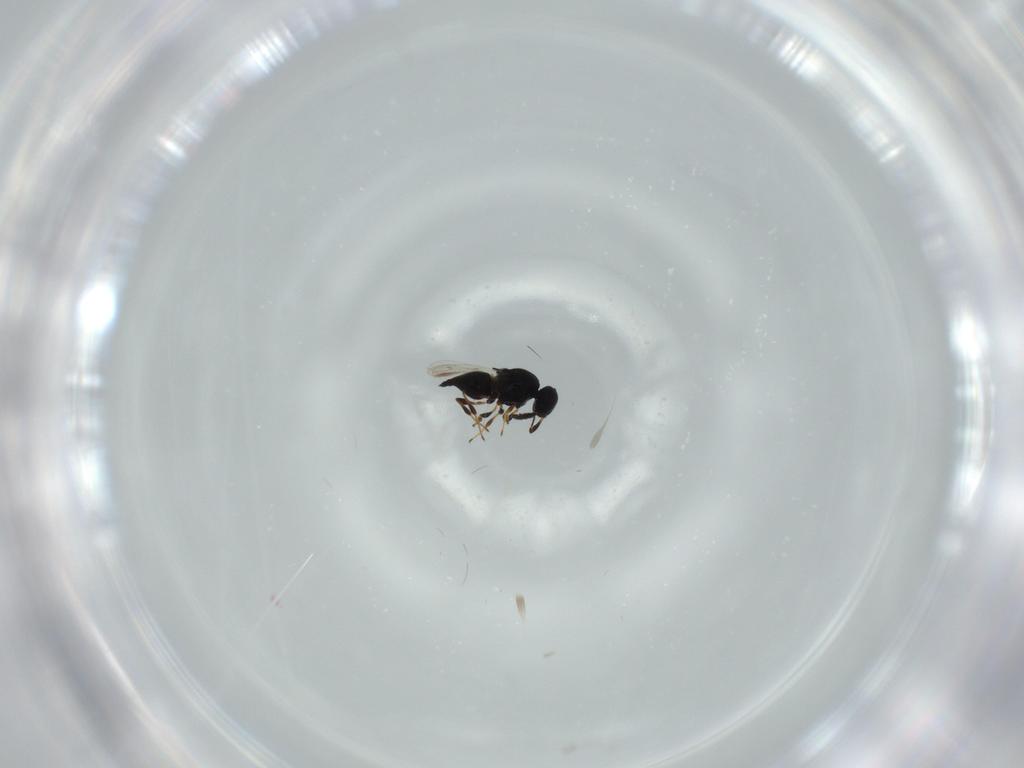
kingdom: Animalia
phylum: Arthropoda
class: Insecta
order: Hymenoptera
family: Platygastridae
